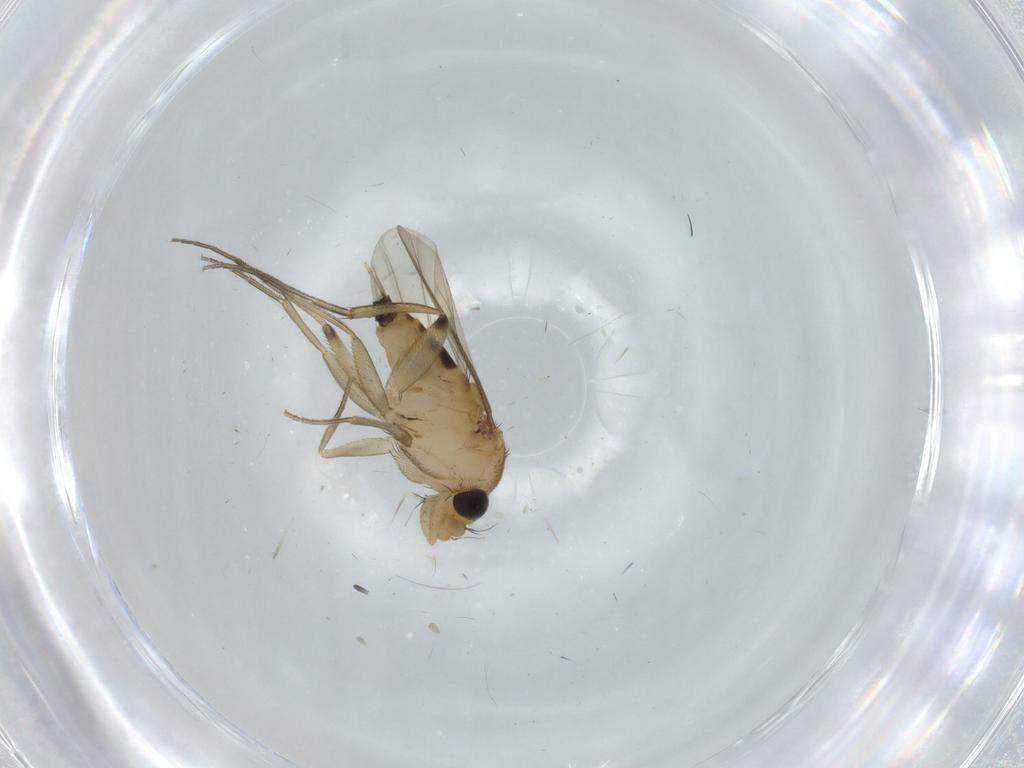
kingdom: Animalia
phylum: Arthropoda
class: Insecta
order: Diptera
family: Phoridae
